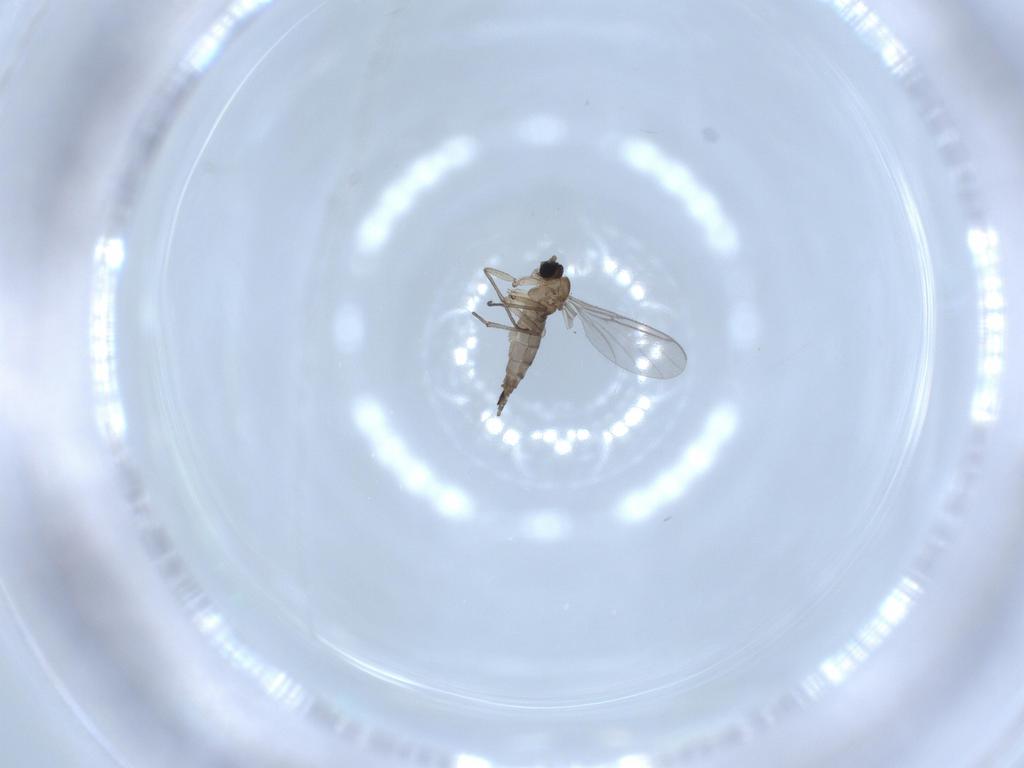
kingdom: Animalia
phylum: Arthropoda
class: Insecta
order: Diptera
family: Sciaridae
